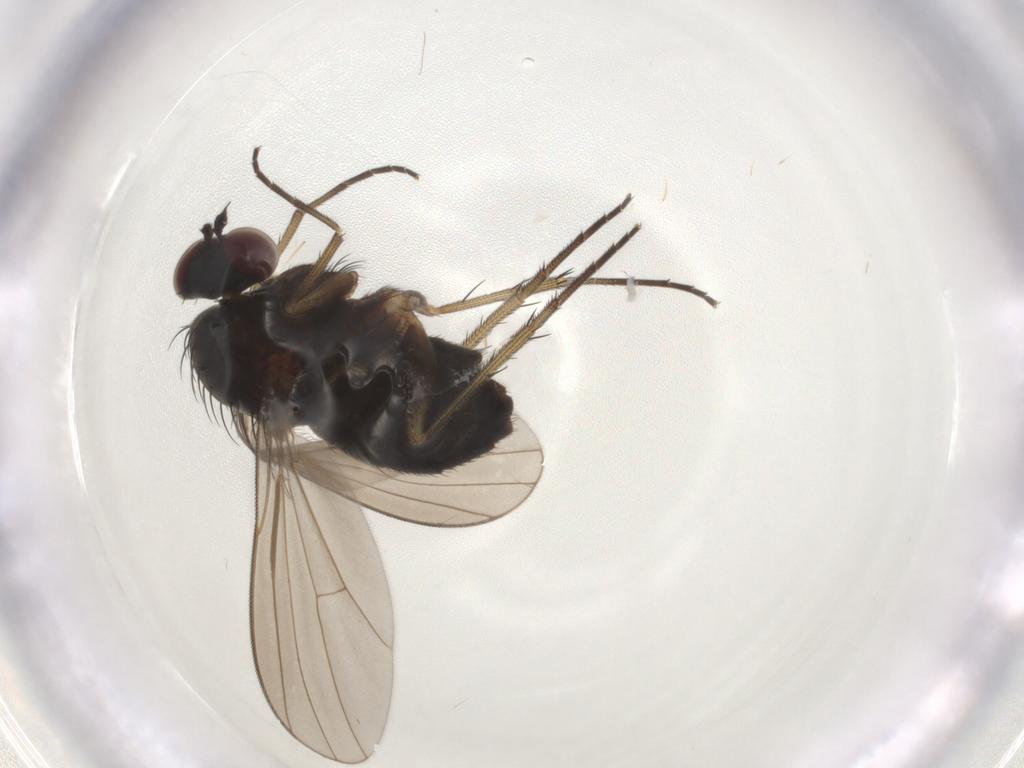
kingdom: Animalia
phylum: Arthropoda
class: Insecta
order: Diptera
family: Dolichopodidae
